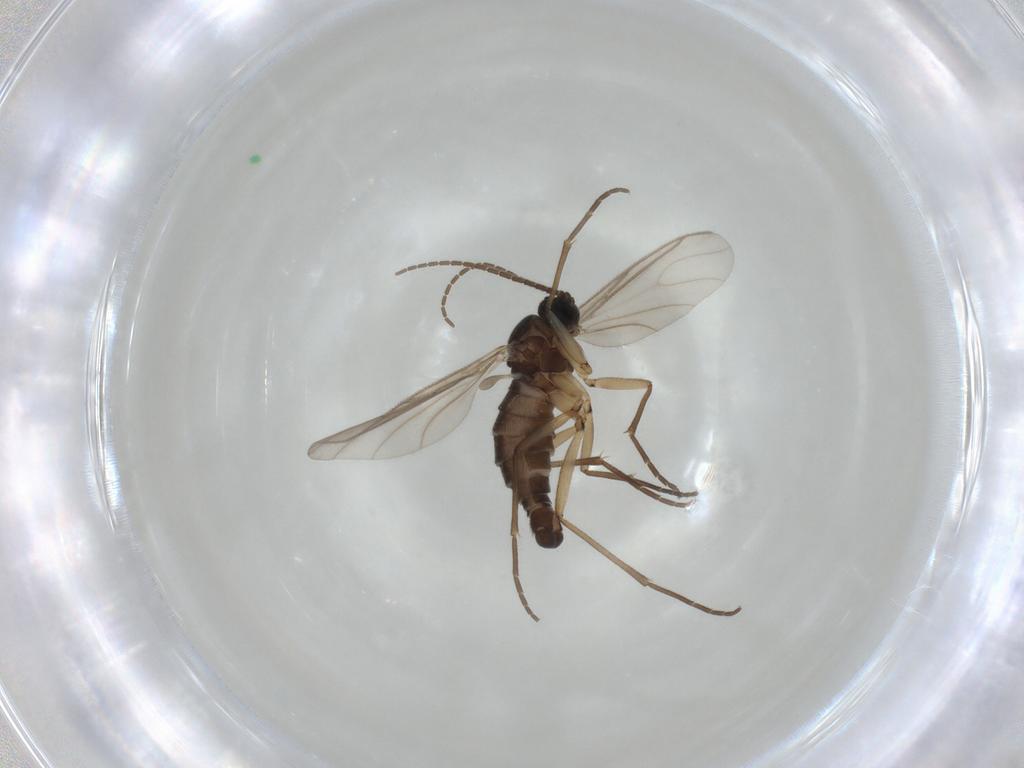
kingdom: Animalia
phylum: Arthropoda
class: Insecta
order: Diptera
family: Sciaridae
